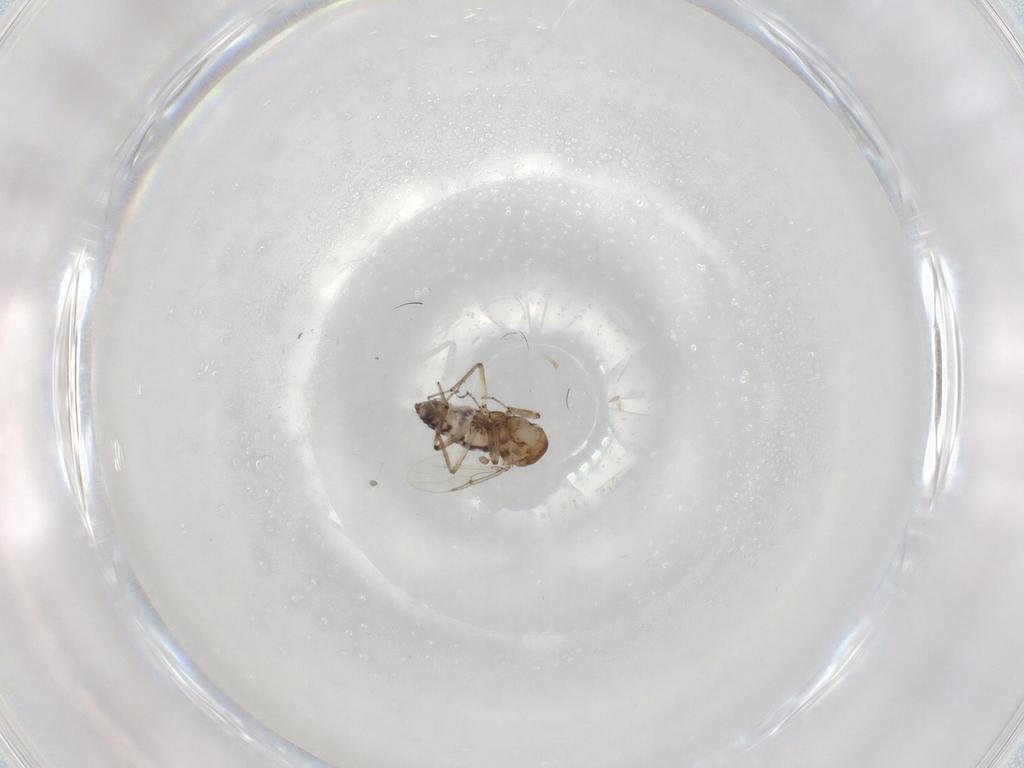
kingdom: Animalia
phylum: Arthropoda
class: Insecta
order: Diptera
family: Ceratopogonidae
